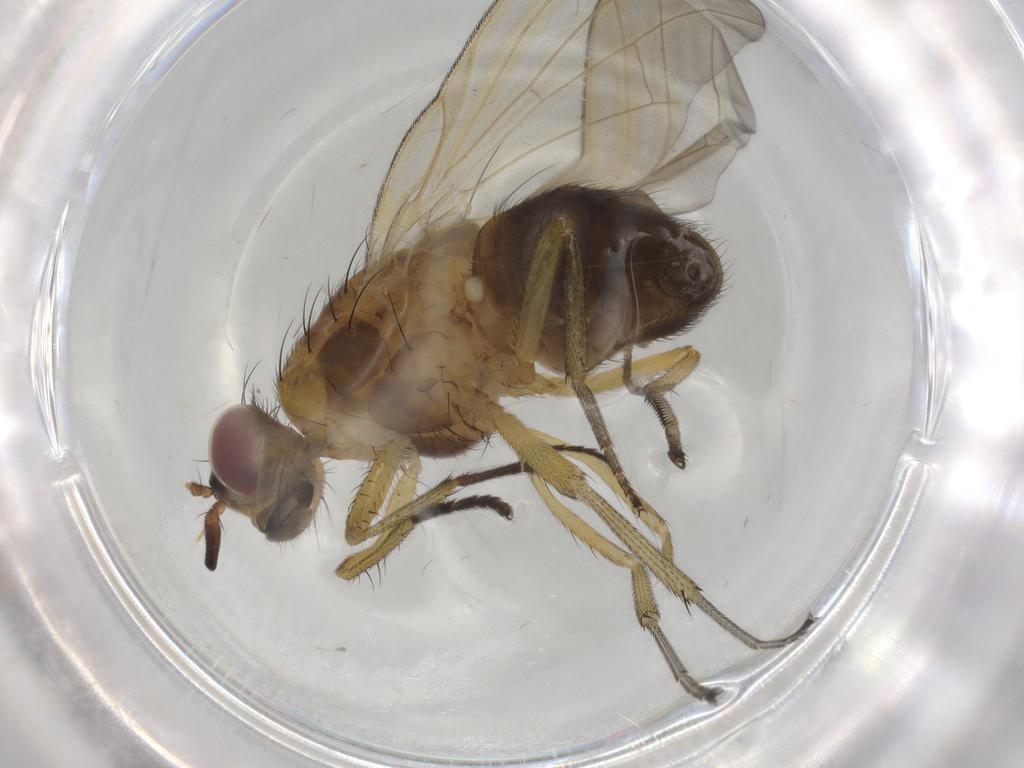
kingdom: Animalia
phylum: Arthropoda
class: Insecta
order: Diptera
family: Lauxaniidae
